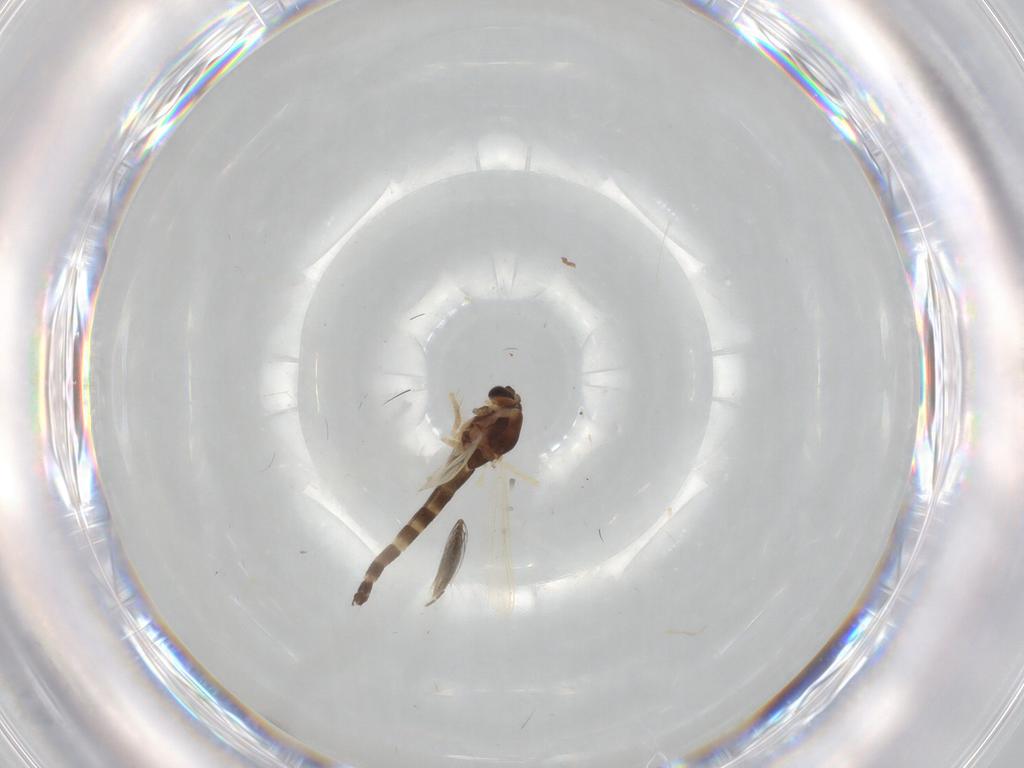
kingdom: Animalia
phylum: Arthropoda
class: Insecta
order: Diptera
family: Chironomidae
